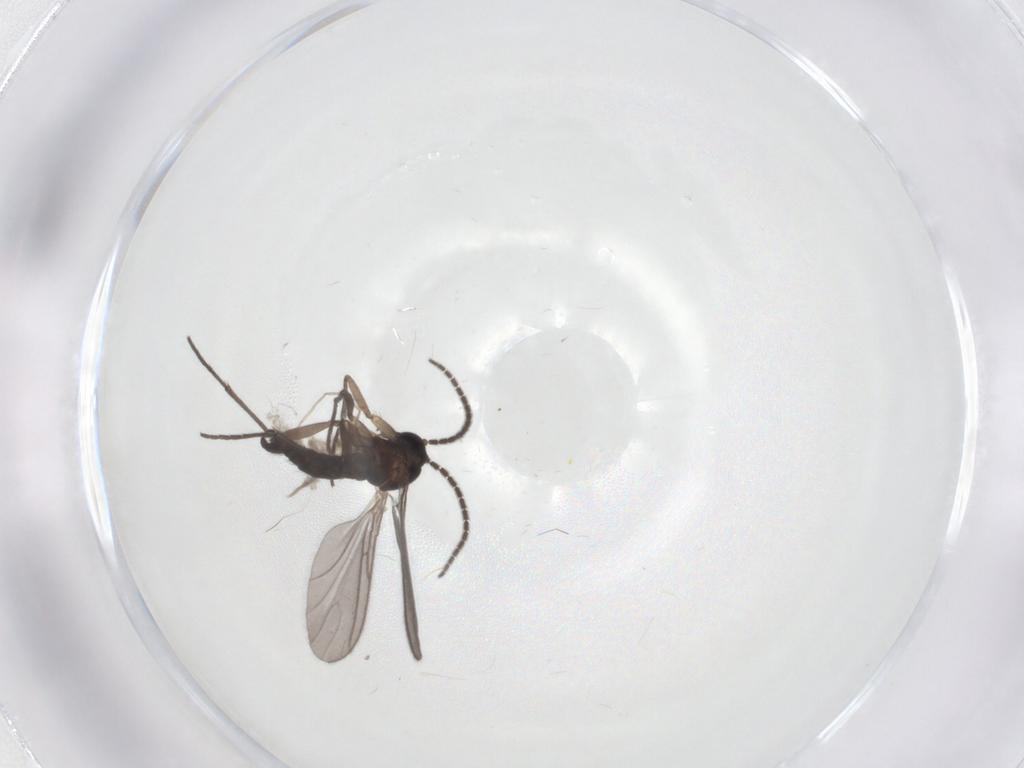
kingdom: Animalia
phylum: Arthropoda
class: Insecta
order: Diptera
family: Sciaridae
